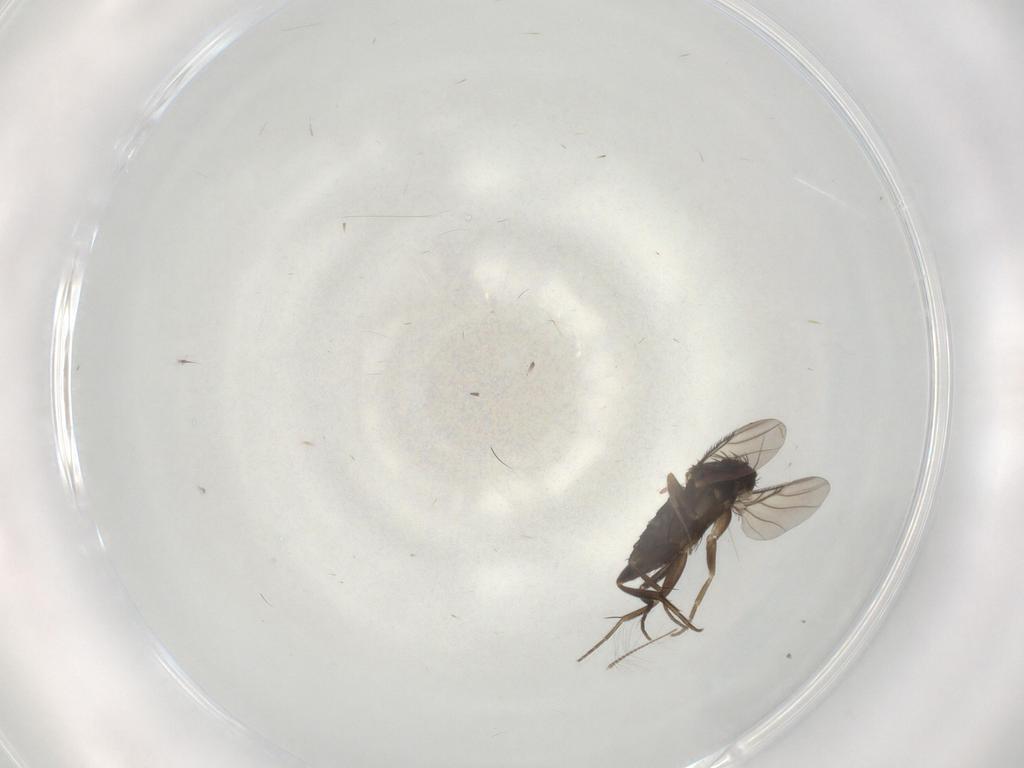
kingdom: Animalia
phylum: Arthropoda
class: Insecta
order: Diptera
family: Phoridae
